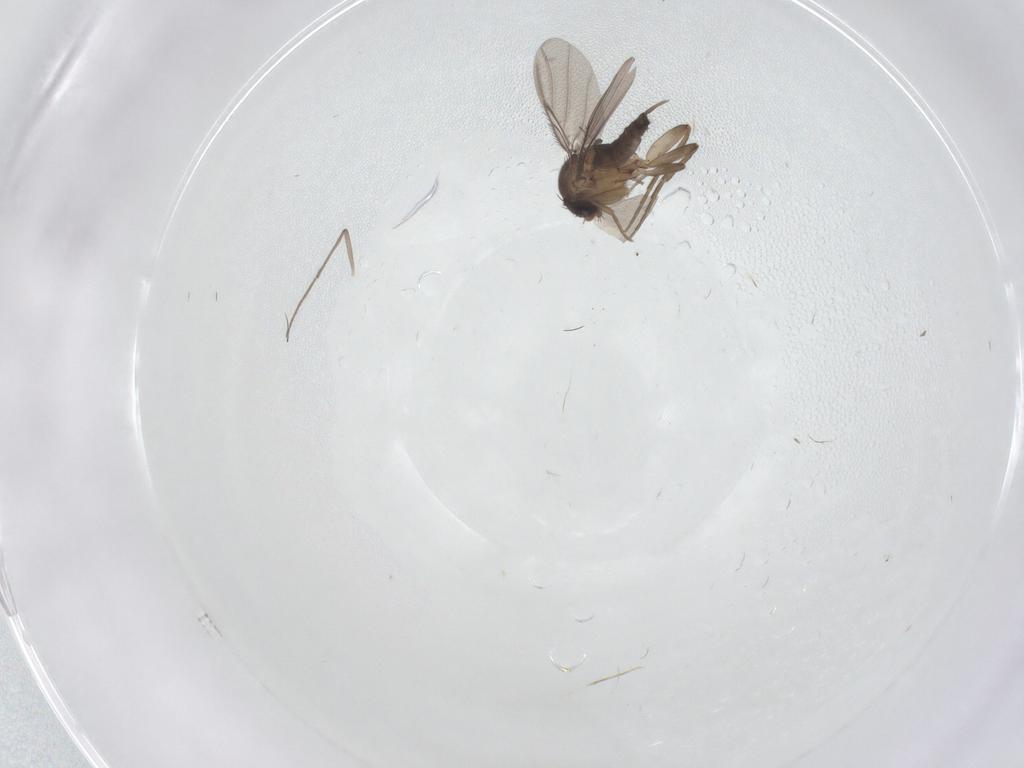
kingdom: Animalia
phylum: Arthropoda
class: Insecta
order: Diptera
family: Phoridae
